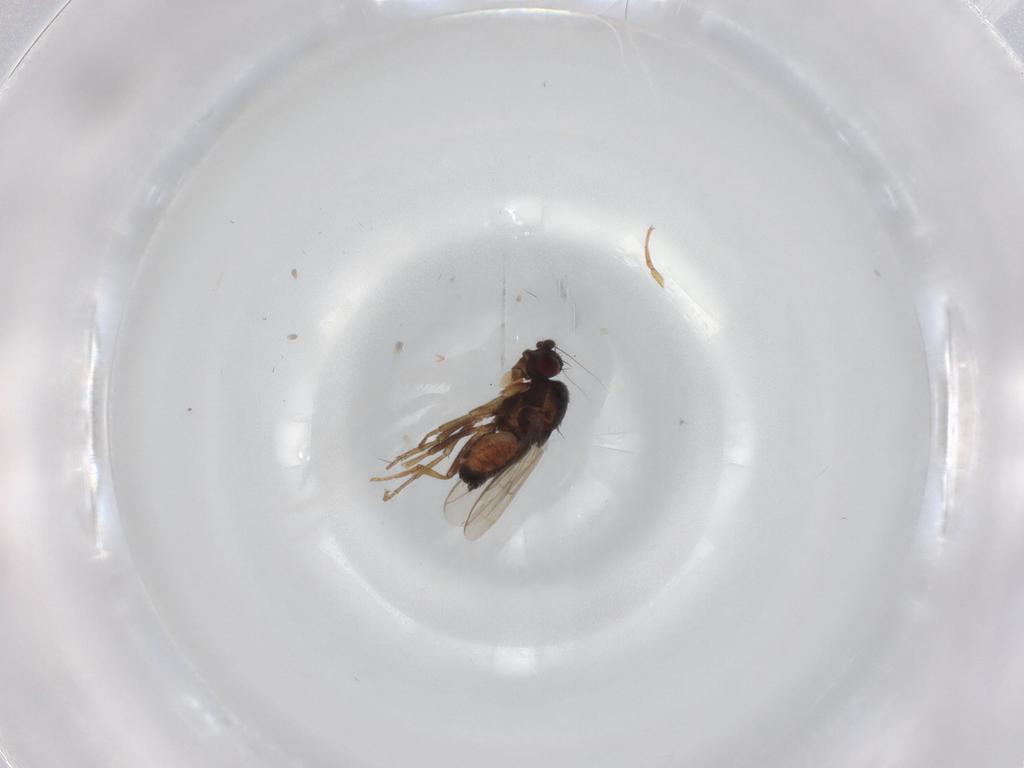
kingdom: Animalia
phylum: Arthropoda
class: Insecta
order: Diptera
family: Sphaeroceridae
